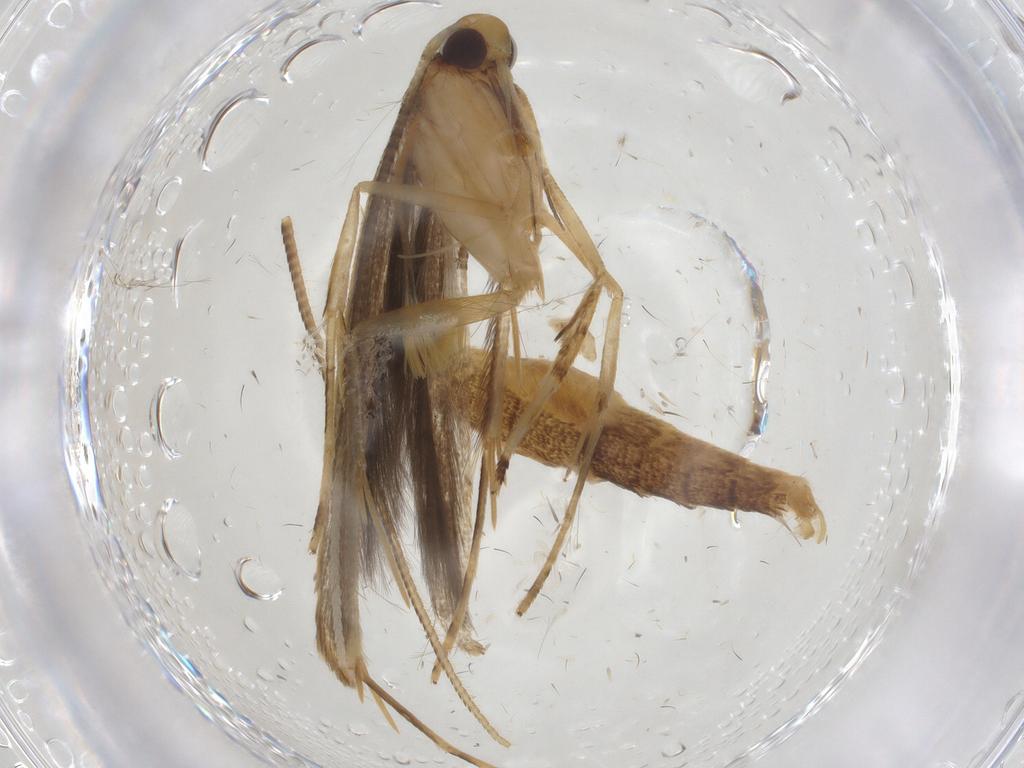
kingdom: Animalia
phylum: Arthropoda
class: Insecta
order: Lepidoptera
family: Pterolonchidae
